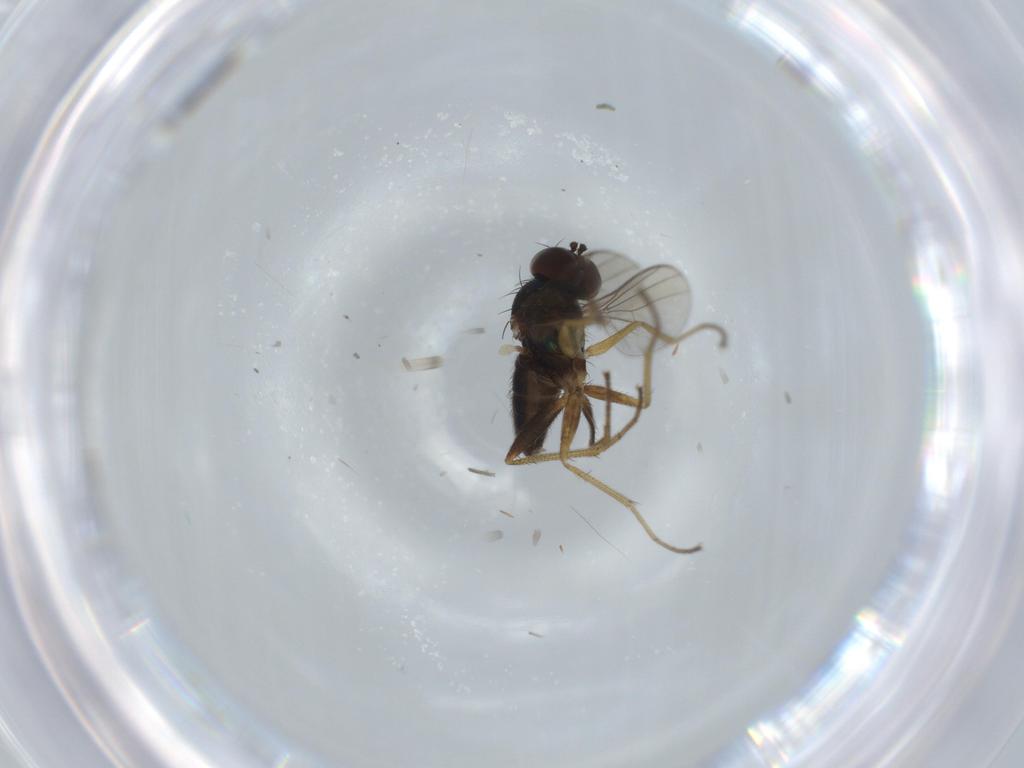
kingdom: Animalia
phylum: Arthropoda
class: Insecta
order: Diptera
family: Dolichopodidae
